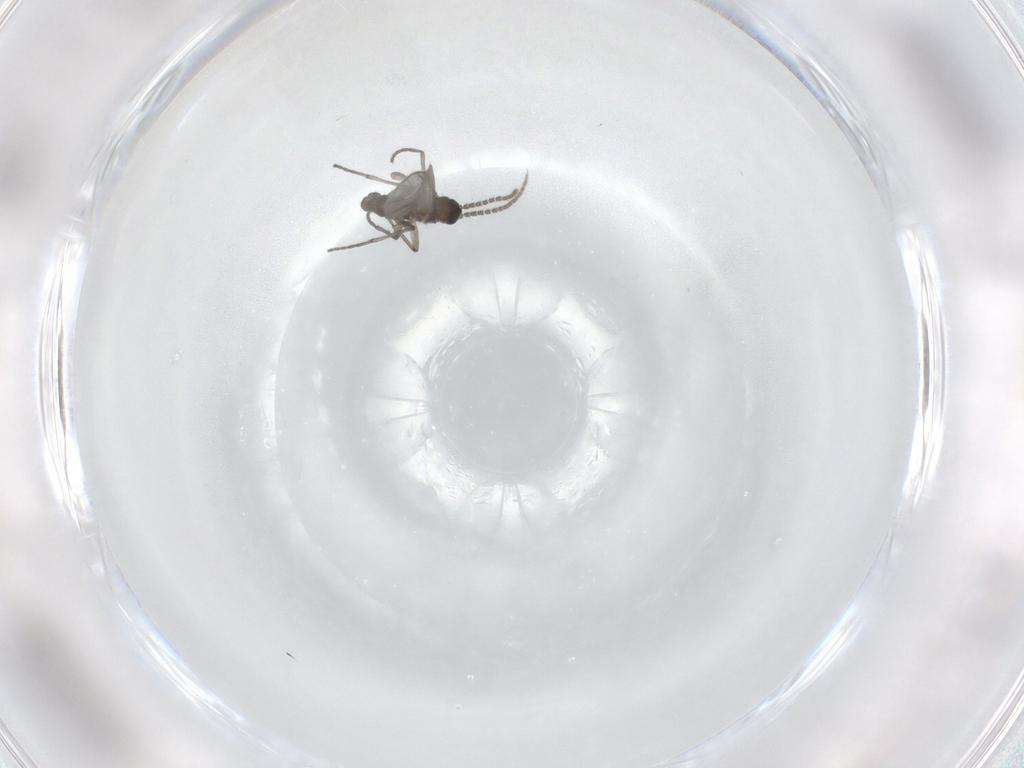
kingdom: Animalia
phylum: Arthropoda
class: Insecta
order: Diptera
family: Sciaridae
